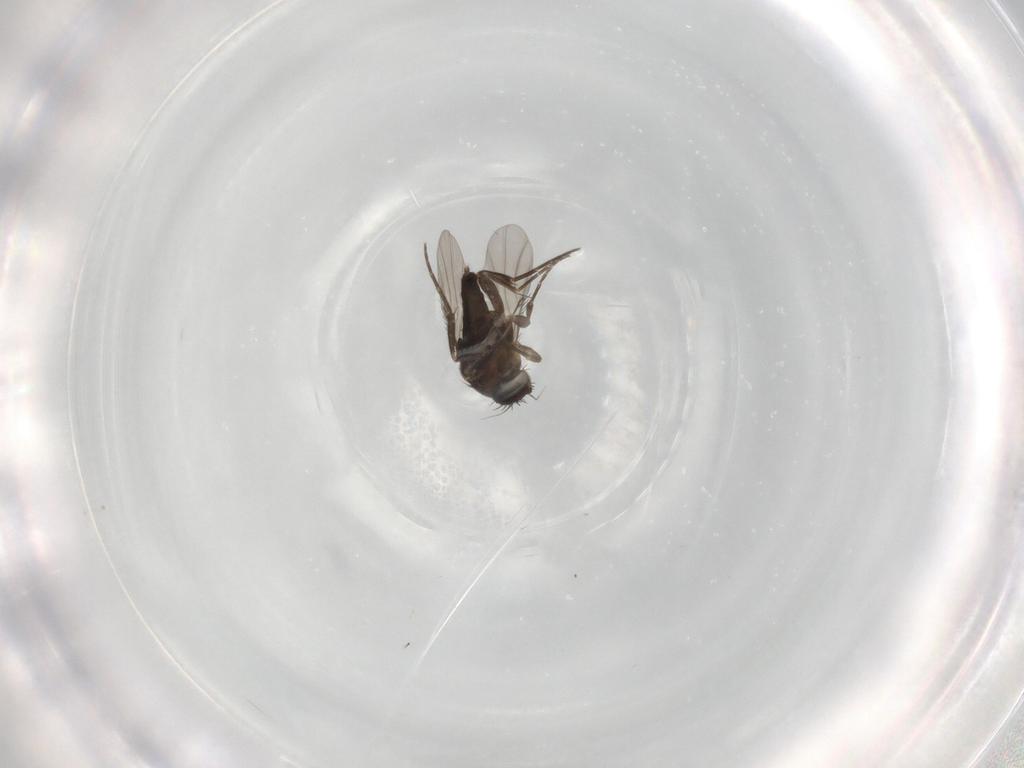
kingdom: Animalia
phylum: Arthropoda
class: Insecta
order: Diptera
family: Phoridae
